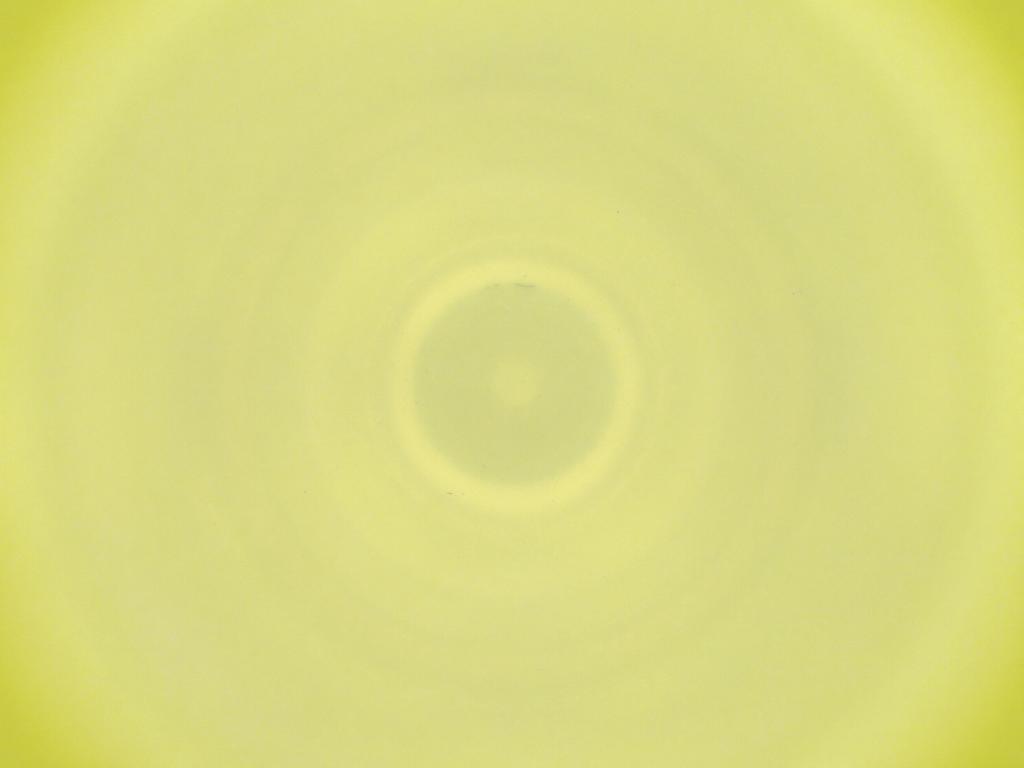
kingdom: Animalia
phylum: Arthropoda
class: Insecta
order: Diptera
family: Cecidomyiidae
